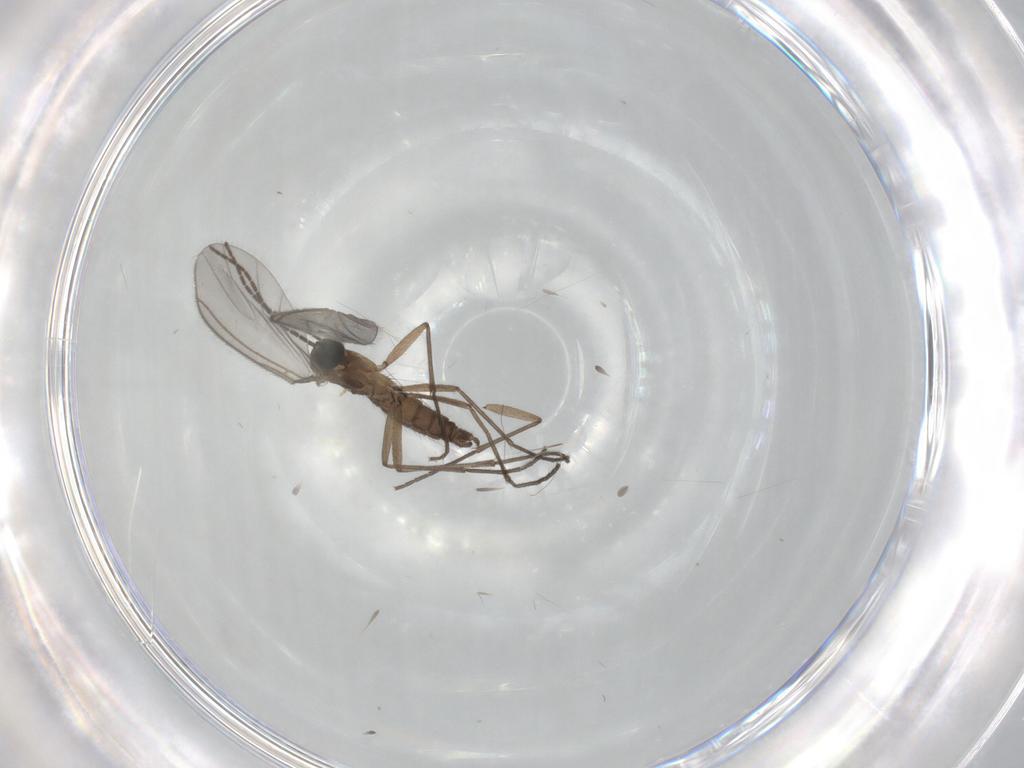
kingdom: Animalia
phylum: Arthropoda
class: Insecta
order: Diptera
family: Sciaridae
